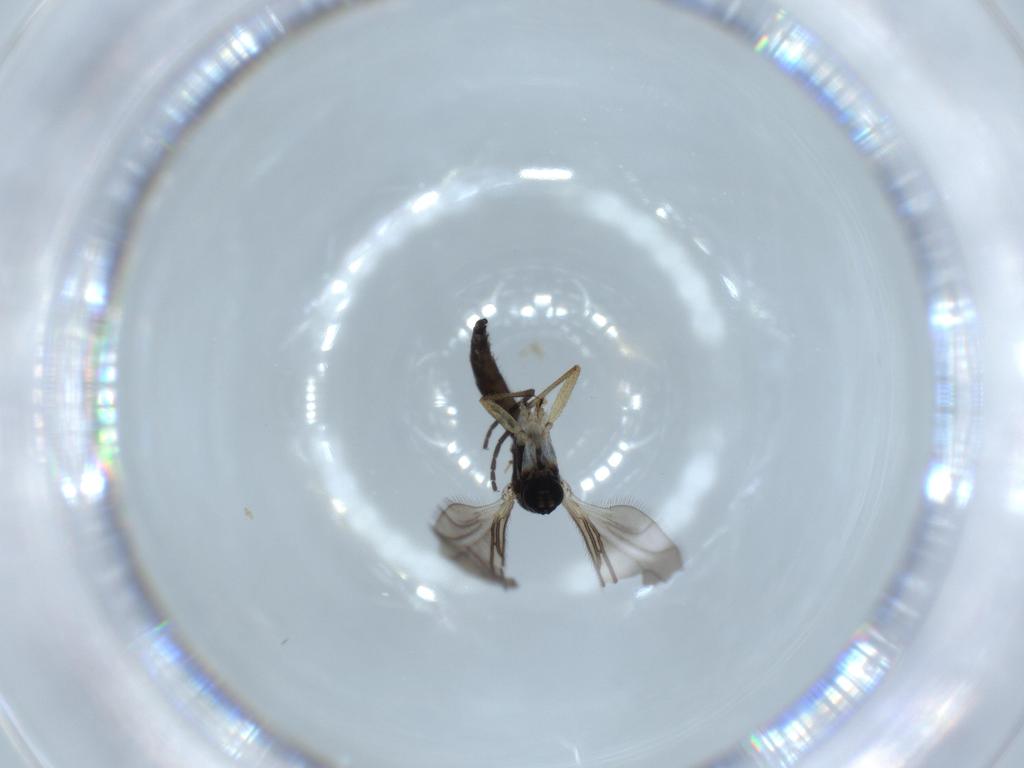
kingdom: Animalia
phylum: Arthropoda
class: Insecta
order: Diptera
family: Sciaridae
